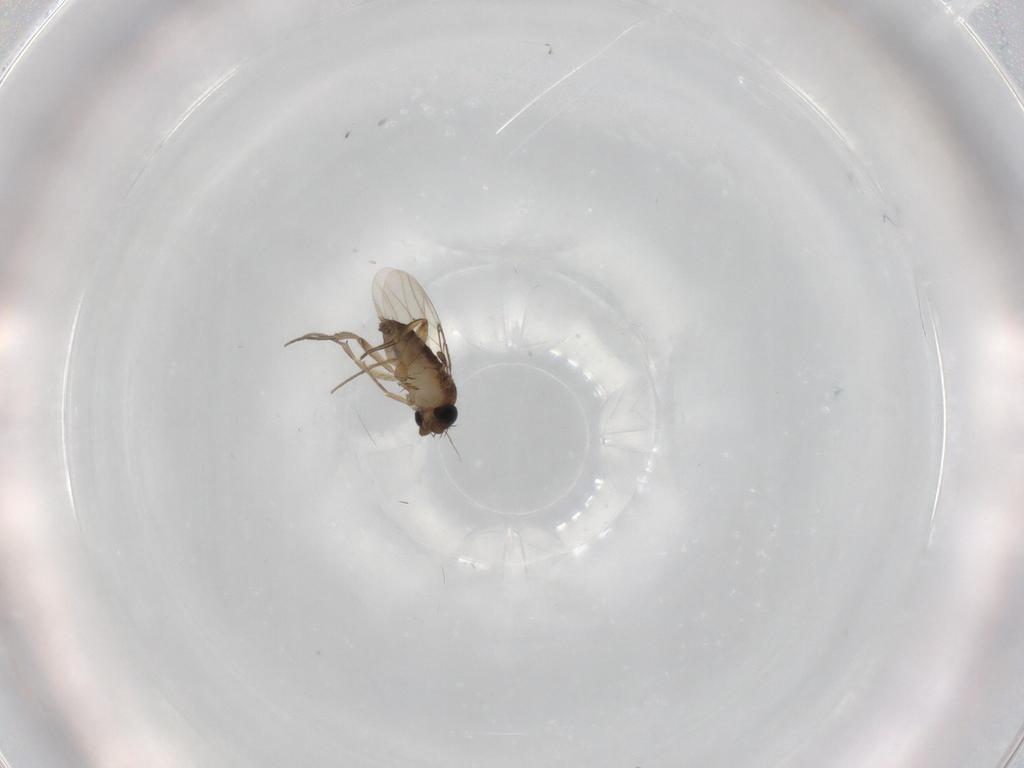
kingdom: Animalia
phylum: Arthropoda
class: Insecta
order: Diptera
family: Phoridae
